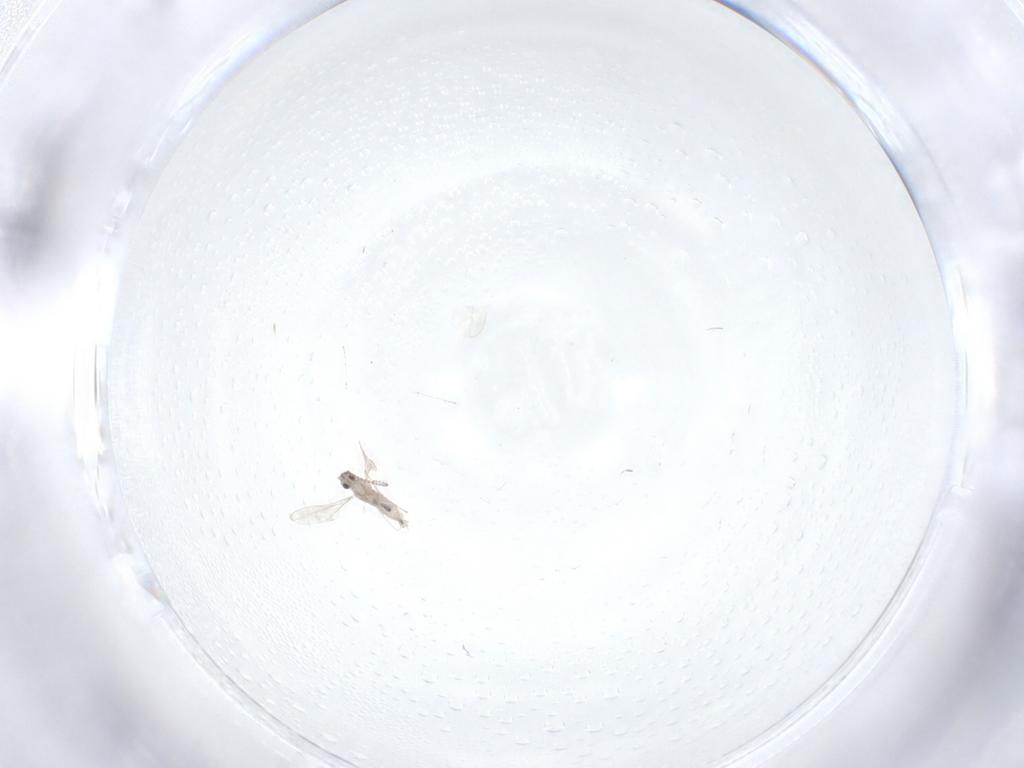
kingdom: Animalia
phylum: Arthropoda
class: Insecta
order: Diptera
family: Cecidomyiidae
